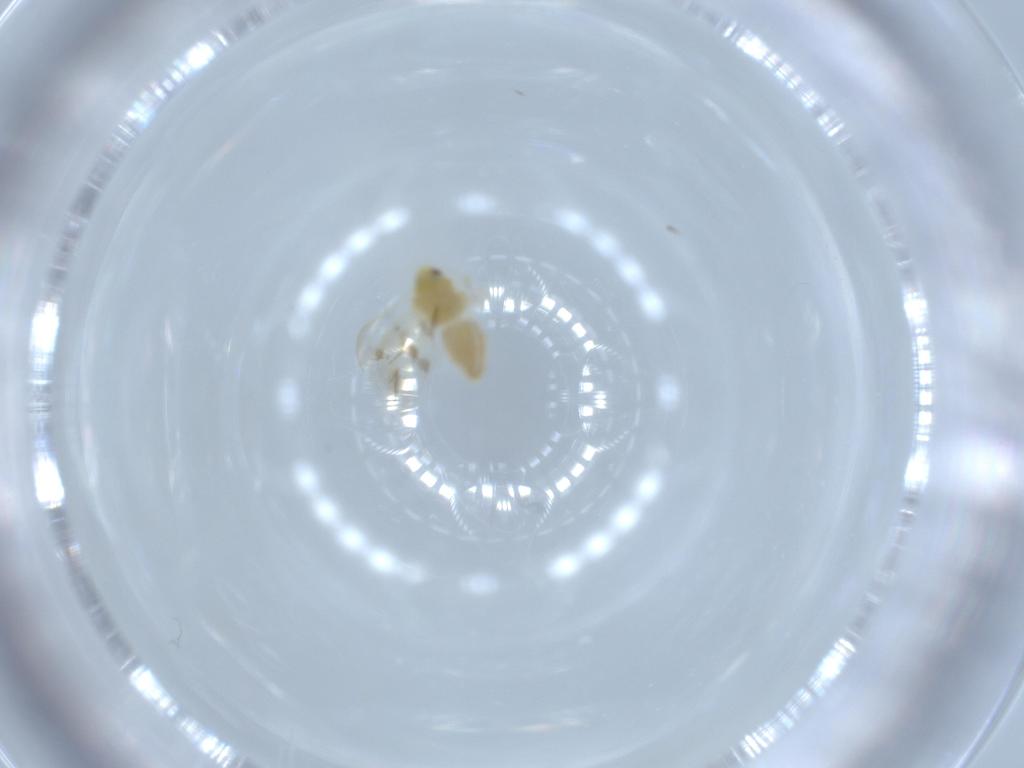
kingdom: Animalia
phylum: Arthropoda
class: Insecta
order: Hemiptera
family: Aleyrodidae
